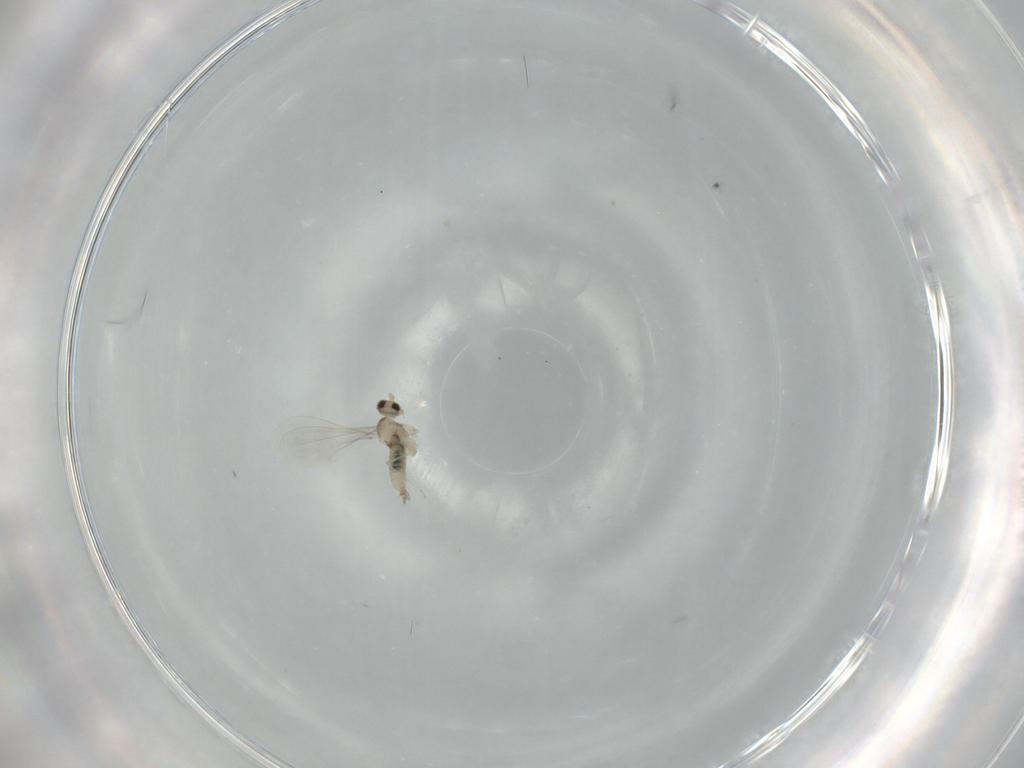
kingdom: Animalia
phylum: Arthropoda
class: Insecta
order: Diptera
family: Cecidomyiidae
